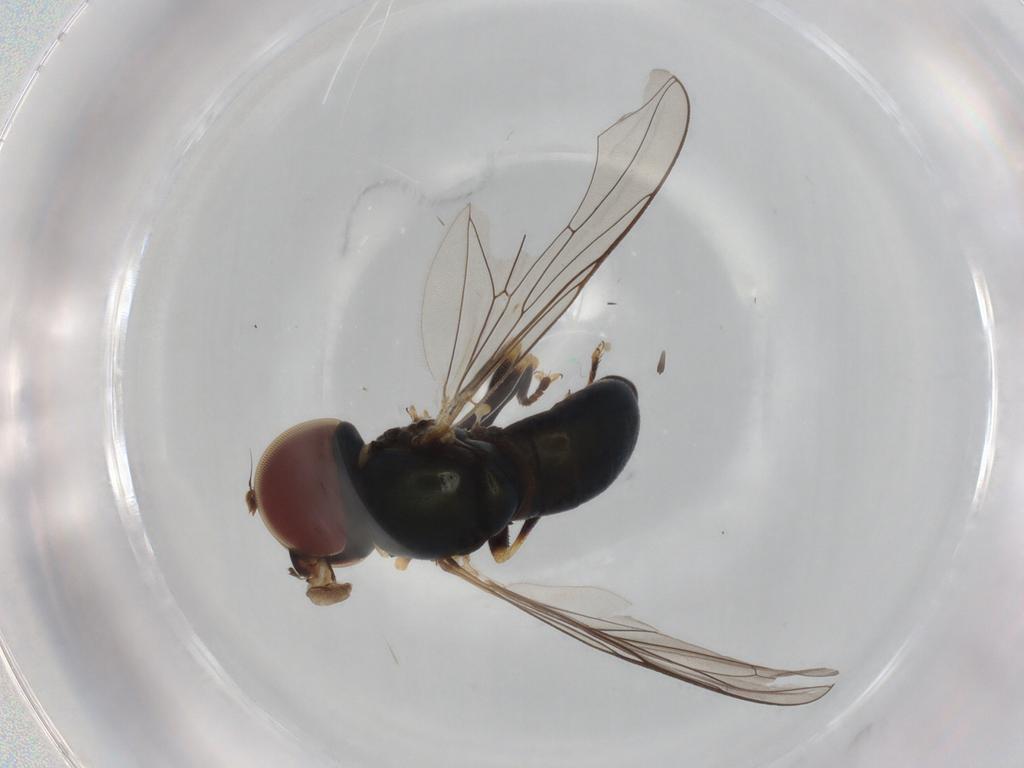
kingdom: Animalia
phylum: Arthropoda
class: Insecta
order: Diptera
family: Pipunculidae
